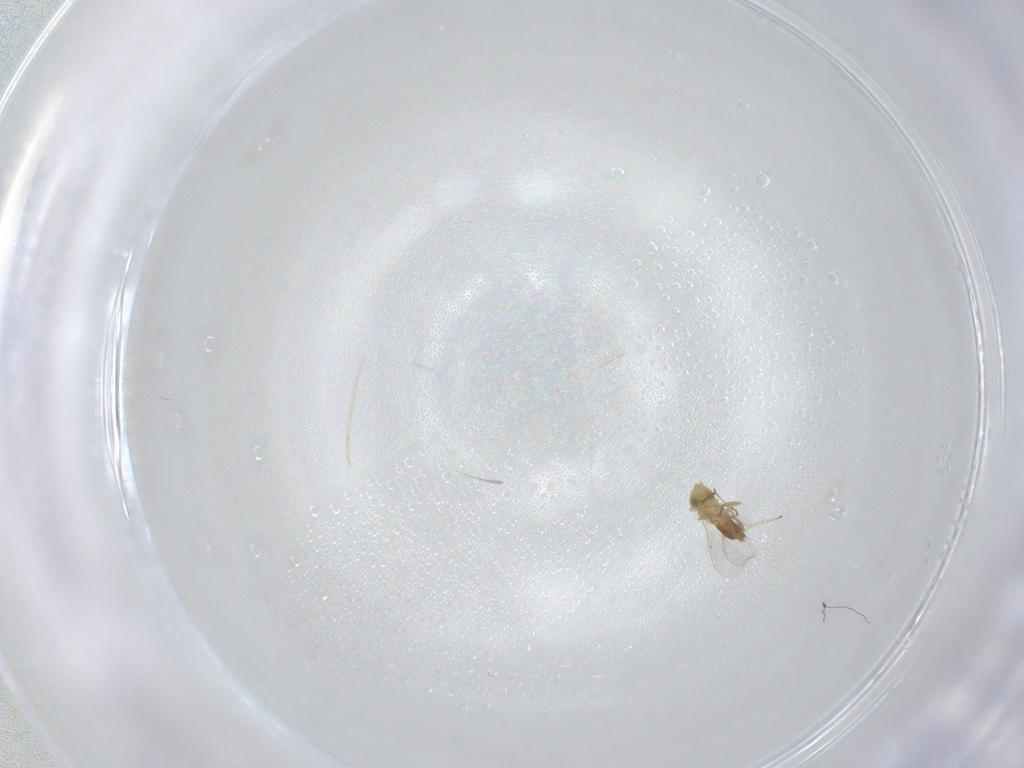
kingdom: Animalia
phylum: Arthropoda
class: Insecta
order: Hymenoptera
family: Aphelinidae
